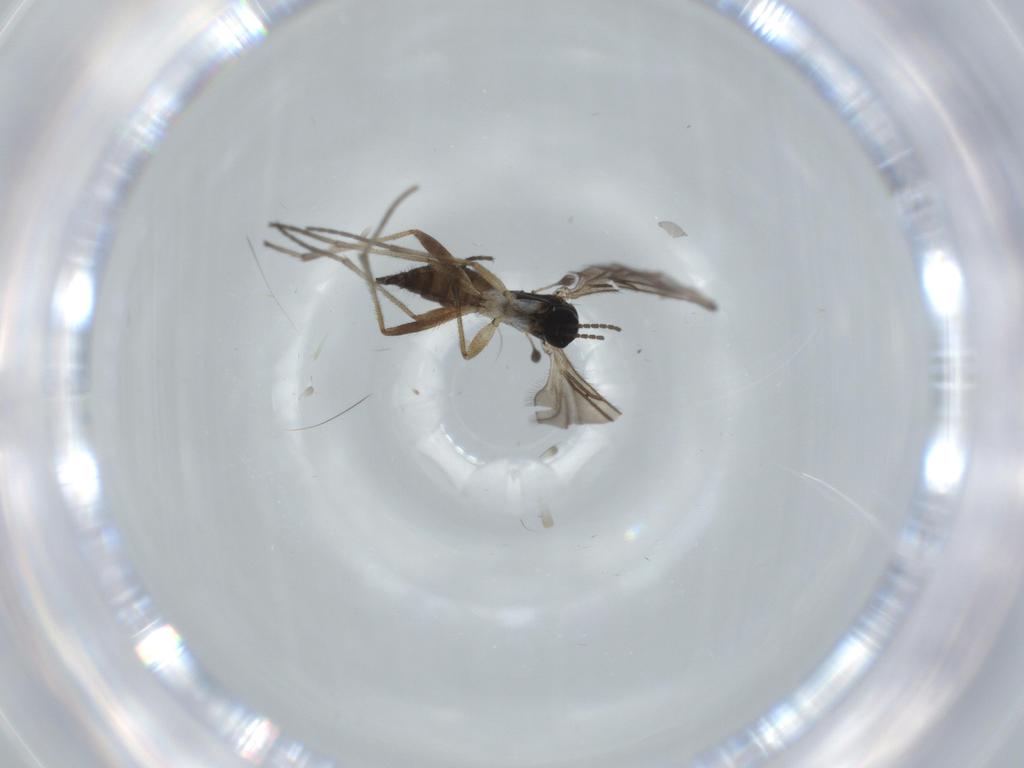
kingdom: Animalia
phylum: Arthropoda
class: Insecta
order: Diptera
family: Sciaridae
